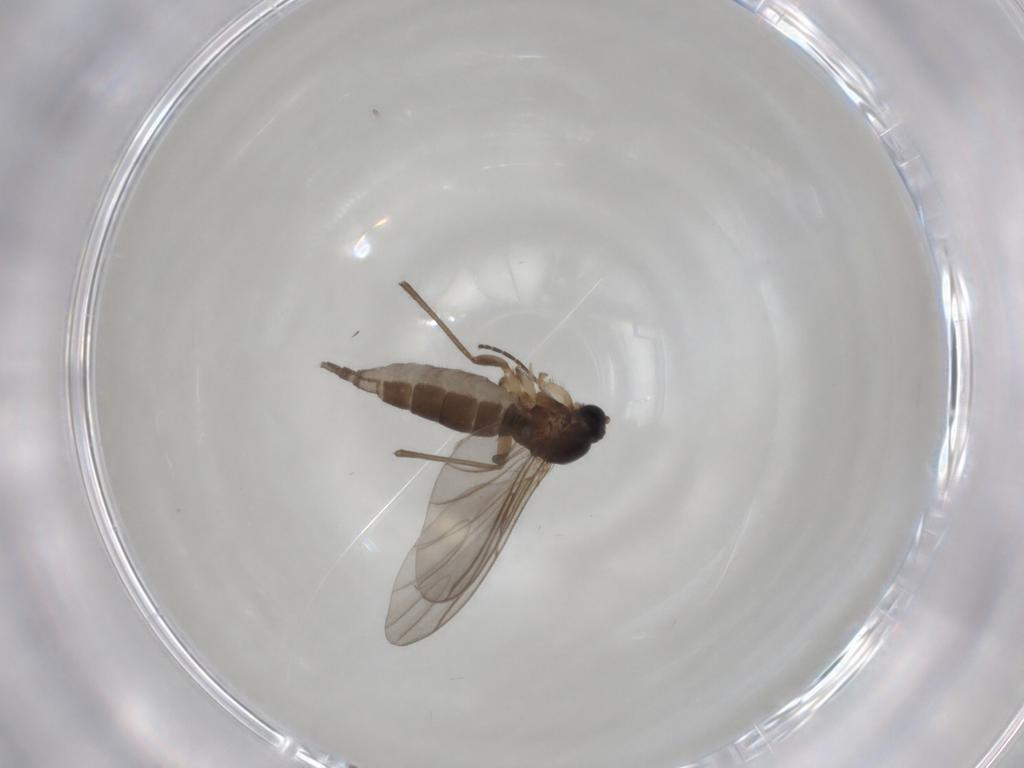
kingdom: Animalia
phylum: Arthropoda
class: Insecta
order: Diptera
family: Sciaridae
